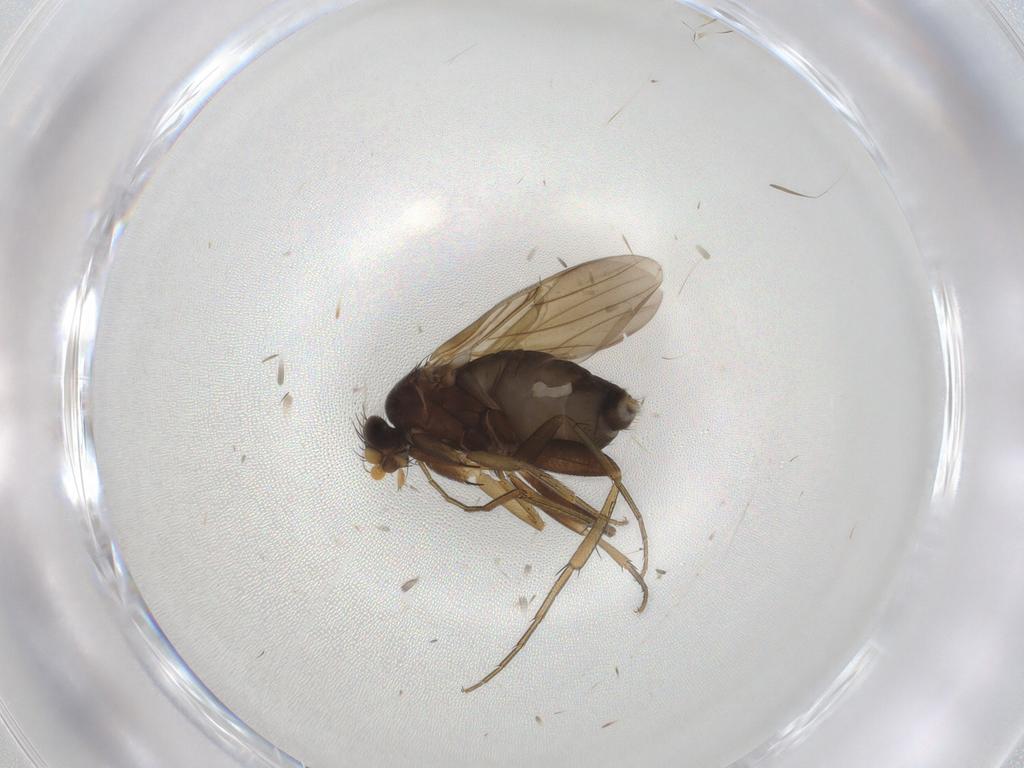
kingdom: Animalia
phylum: Arthropoda
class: Insecta
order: Diptera
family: Phoridae
